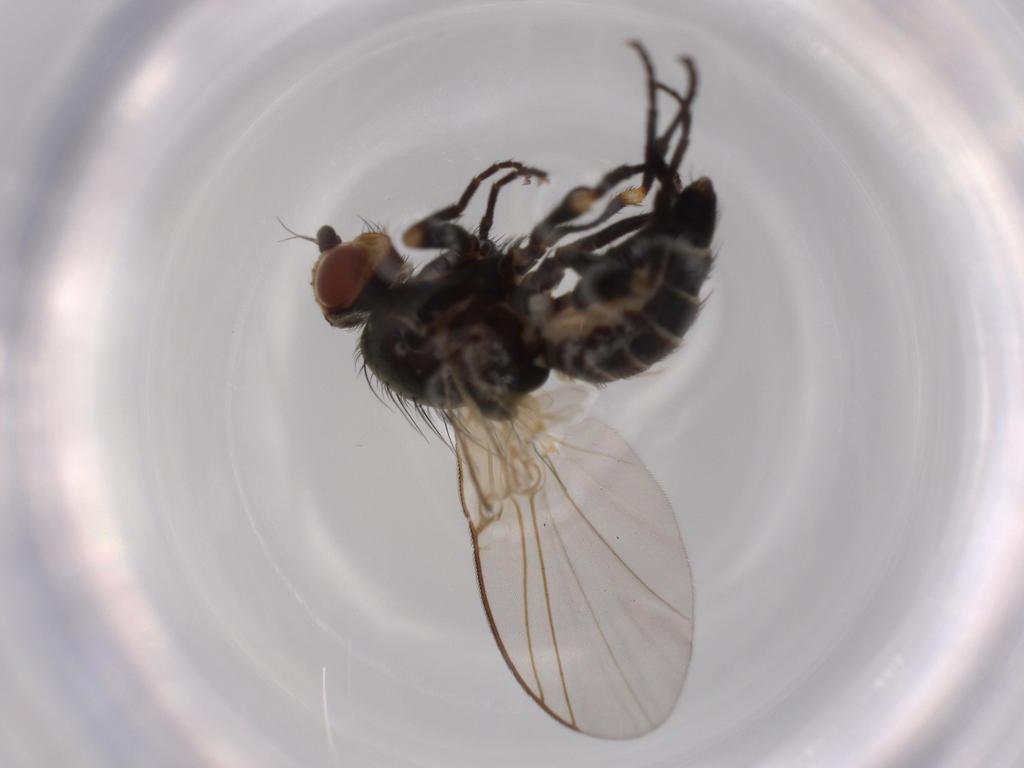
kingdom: Animalia
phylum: Arthropoda
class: Insecta
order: Diptera
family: Agromyzidae
